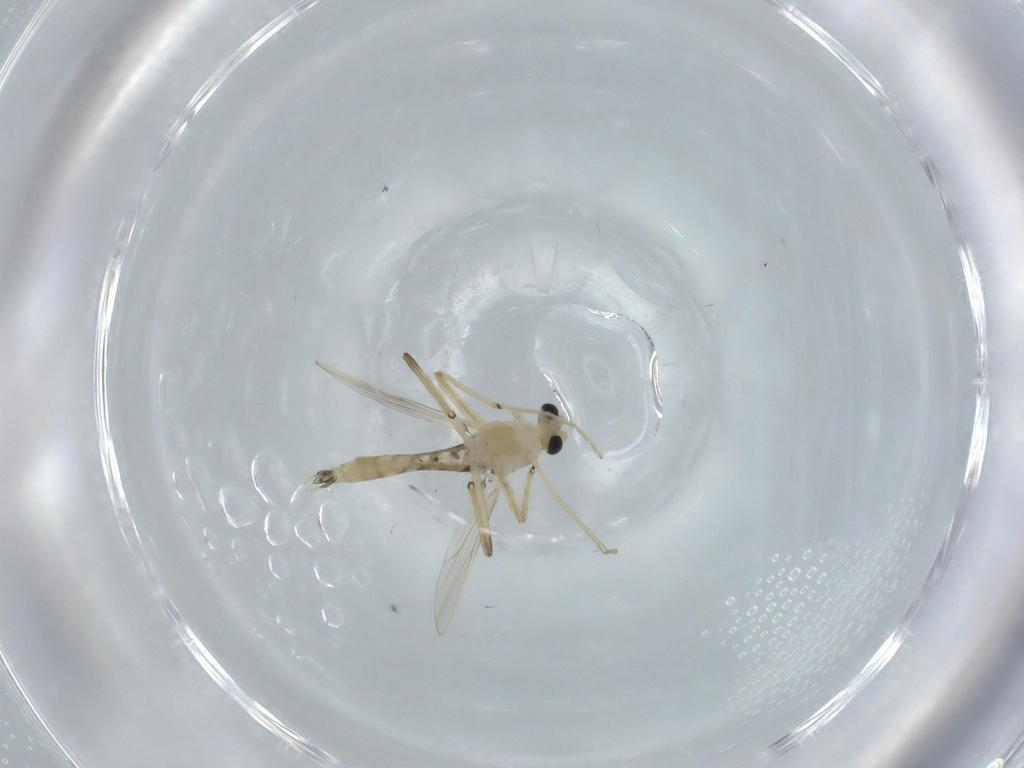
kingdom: Animalia
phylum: Arthropoda
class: Insecta
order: Diptera
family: Chironomidae
